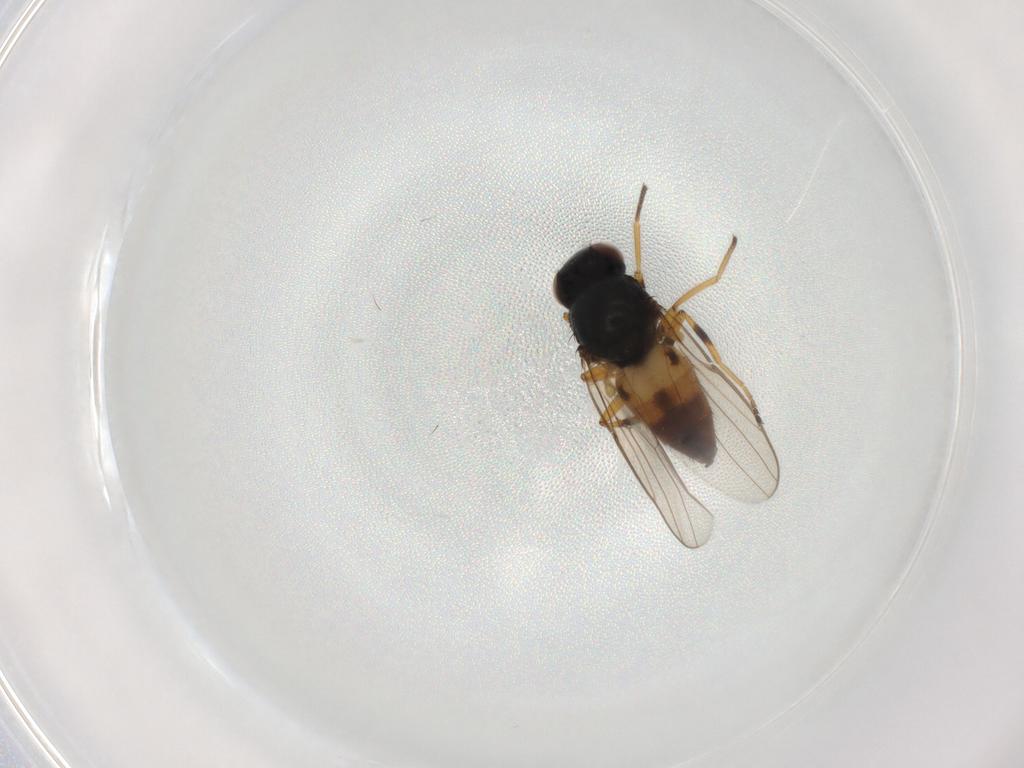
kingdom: Animalia
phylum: Arthropoda
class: Insecta
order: Diptera
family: Chloropidae
